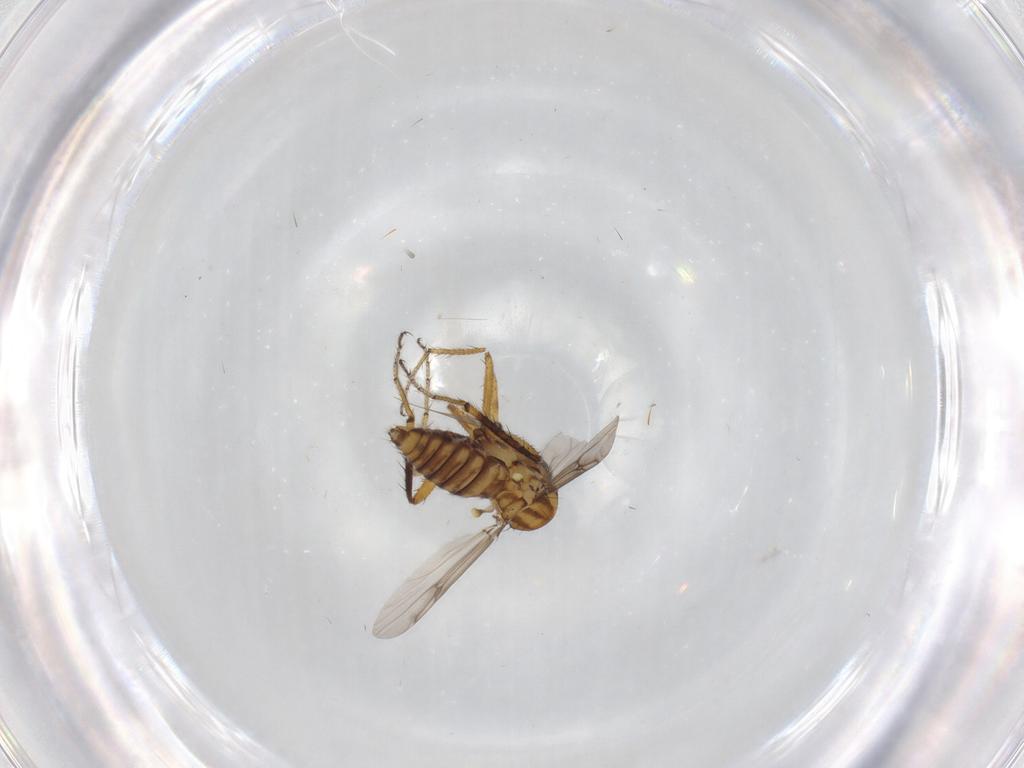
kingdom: Animalia
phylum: Arthropoda
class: Insecta
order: Diptera
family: Ceratopogonidae
